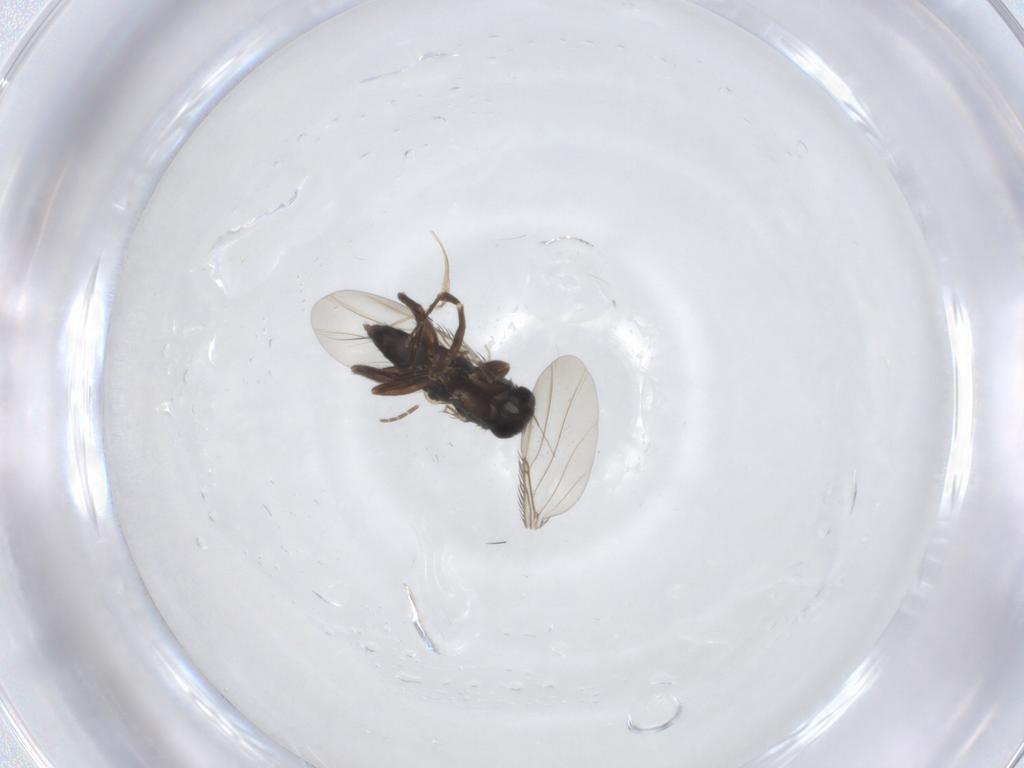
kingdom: Animalia
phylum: Arthropoda
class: Insecta
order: Diptera
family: Phoridae
